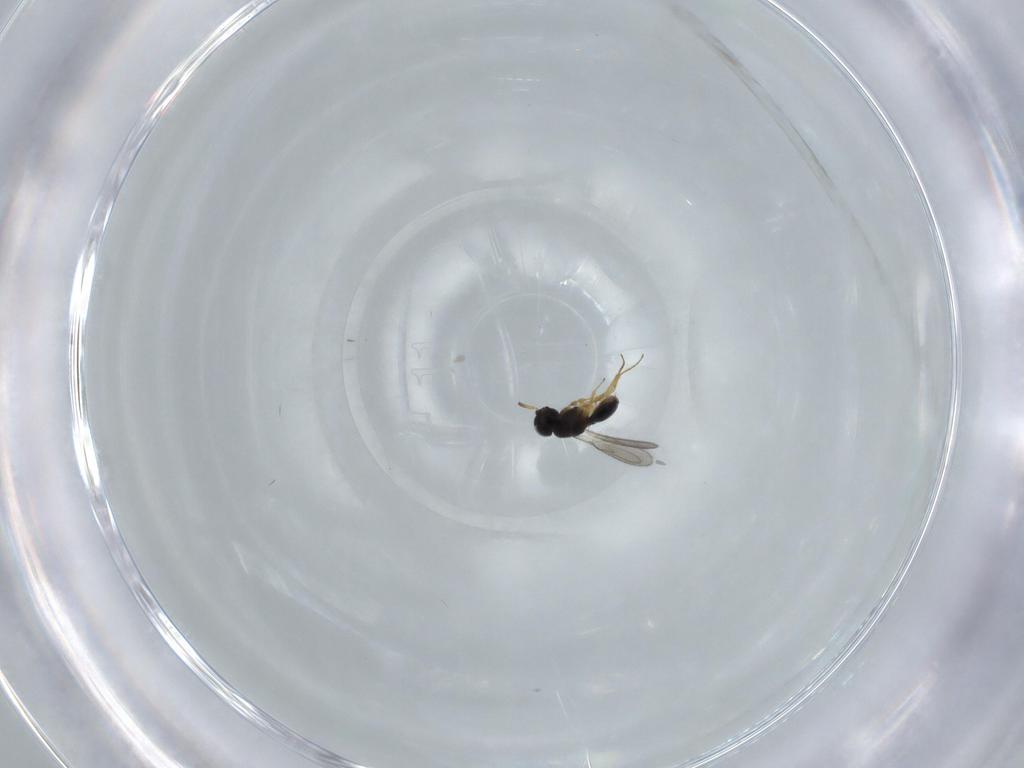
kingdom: Animalia
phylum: Arthropoda
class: Insecta
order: Hymenoptera
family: Scelionidae
